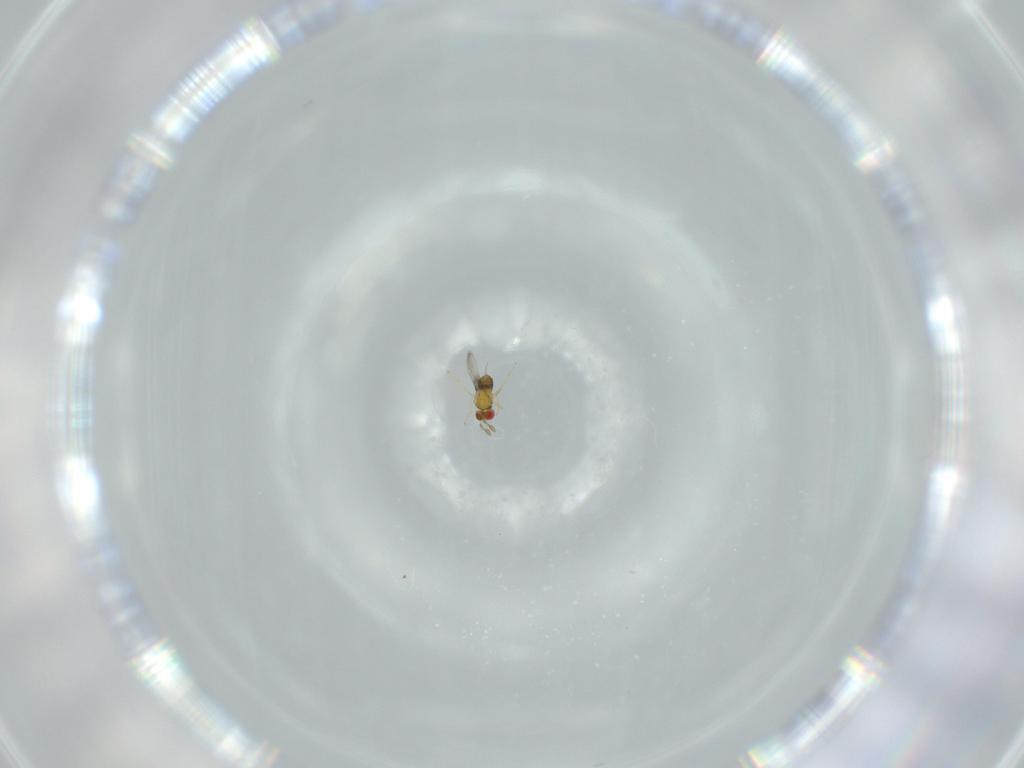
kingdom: Animalia
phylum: Arthropoda
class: Insecta
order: Hymenoptera
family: Trichogrammatidae
